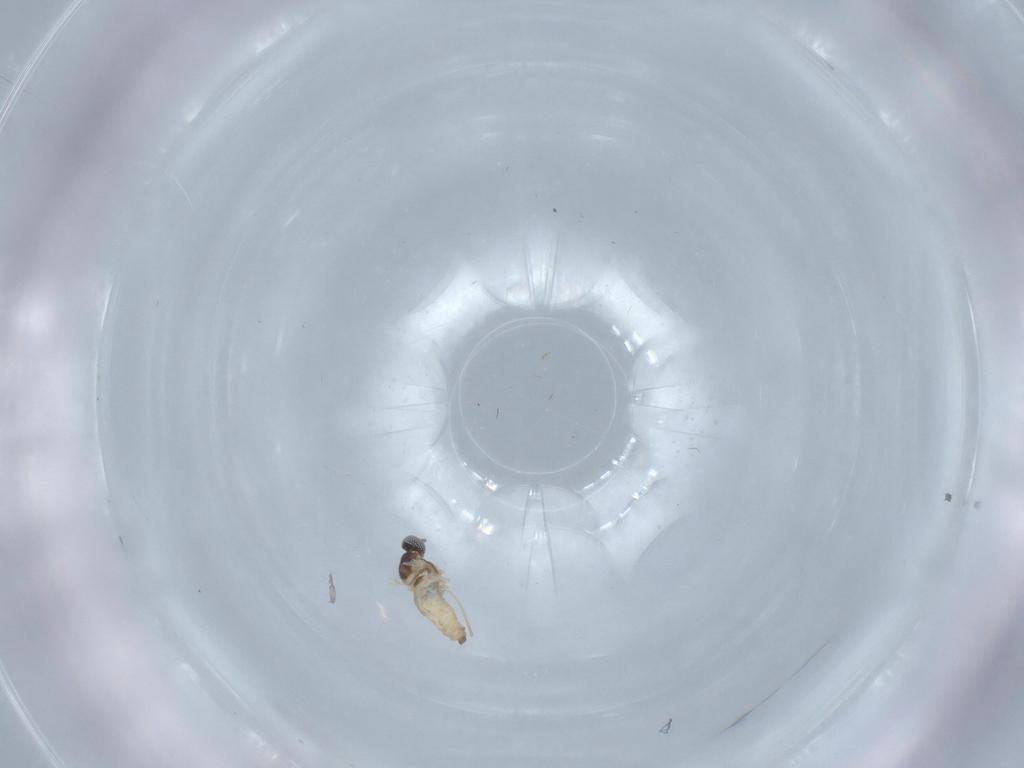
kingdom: Animalia
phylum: Arthropoda
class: Insecta
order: Diptera
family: Cecidomyiidae
